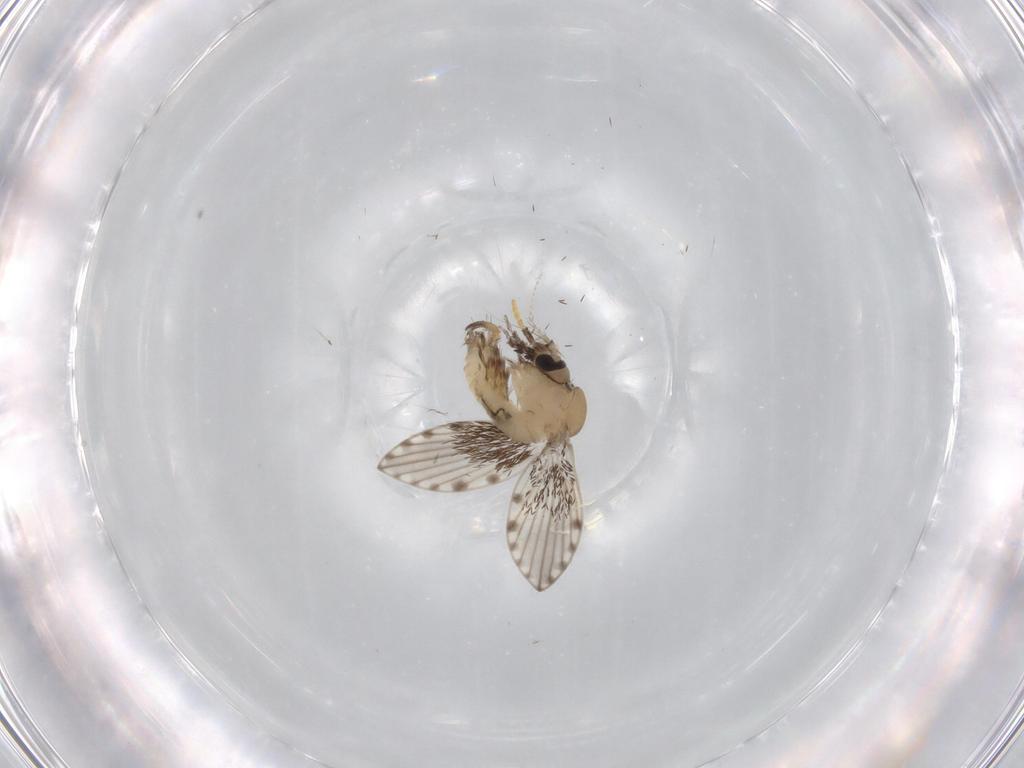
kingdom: Animalia
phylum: Arthropoda
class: Insecta
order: Diptera
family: Psychodidae
